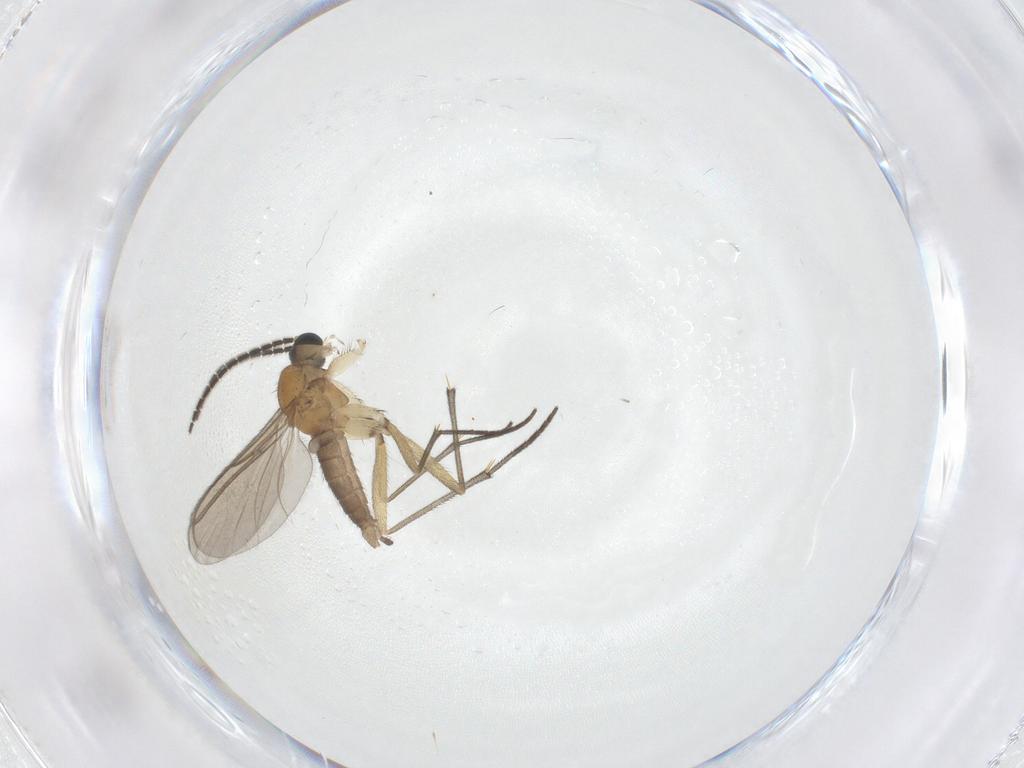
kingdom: Animalia
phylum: Arthropoda
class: Insecta
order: Diptera
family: Sciaridae
